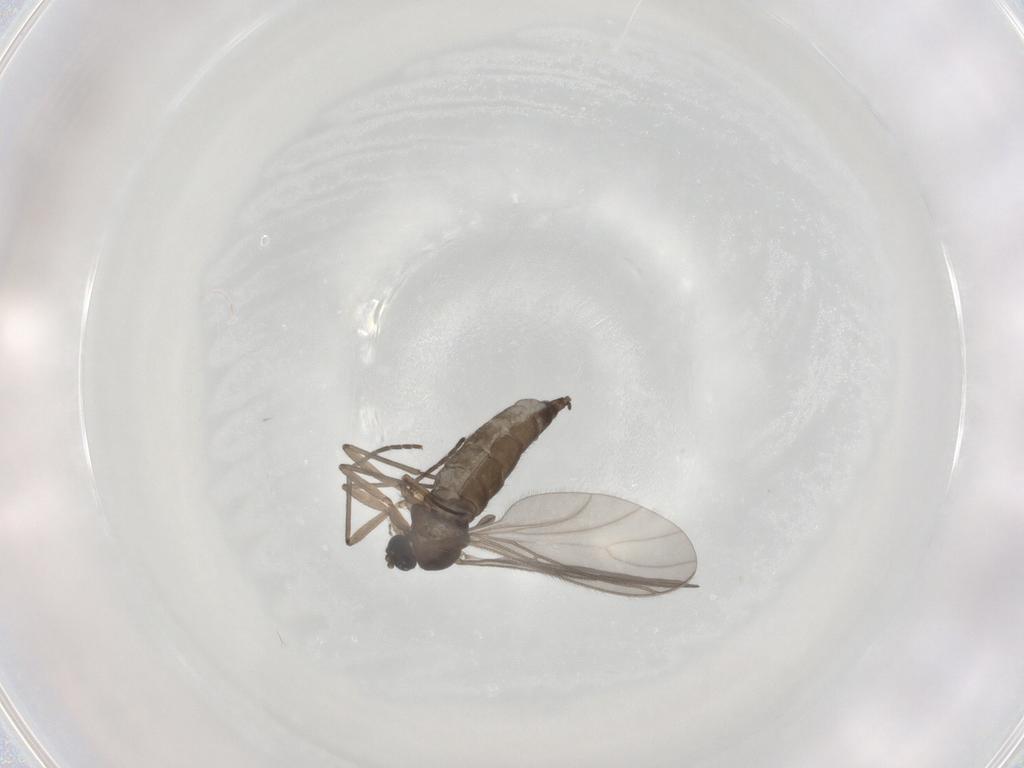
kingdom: Animalia
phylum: Arthropoda
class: Insecta
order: Diptera
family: Sciaridae
